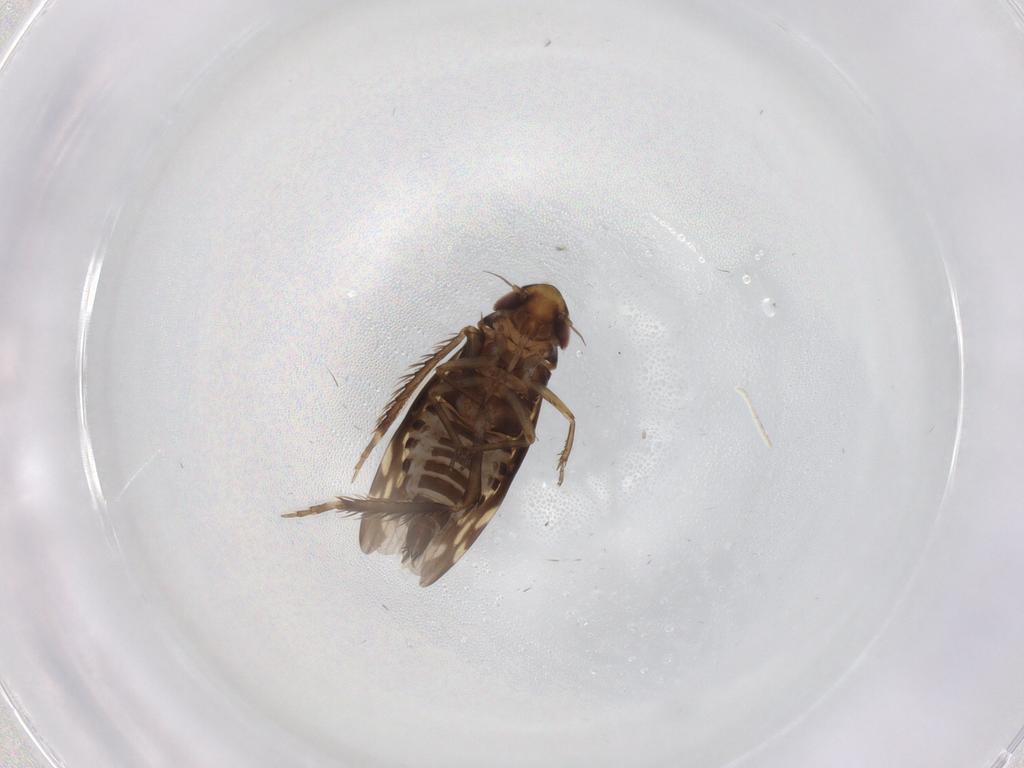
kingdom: Animalia
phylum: Arthropoda
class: Insecta
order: Hemiptera
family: Cicadellidae
